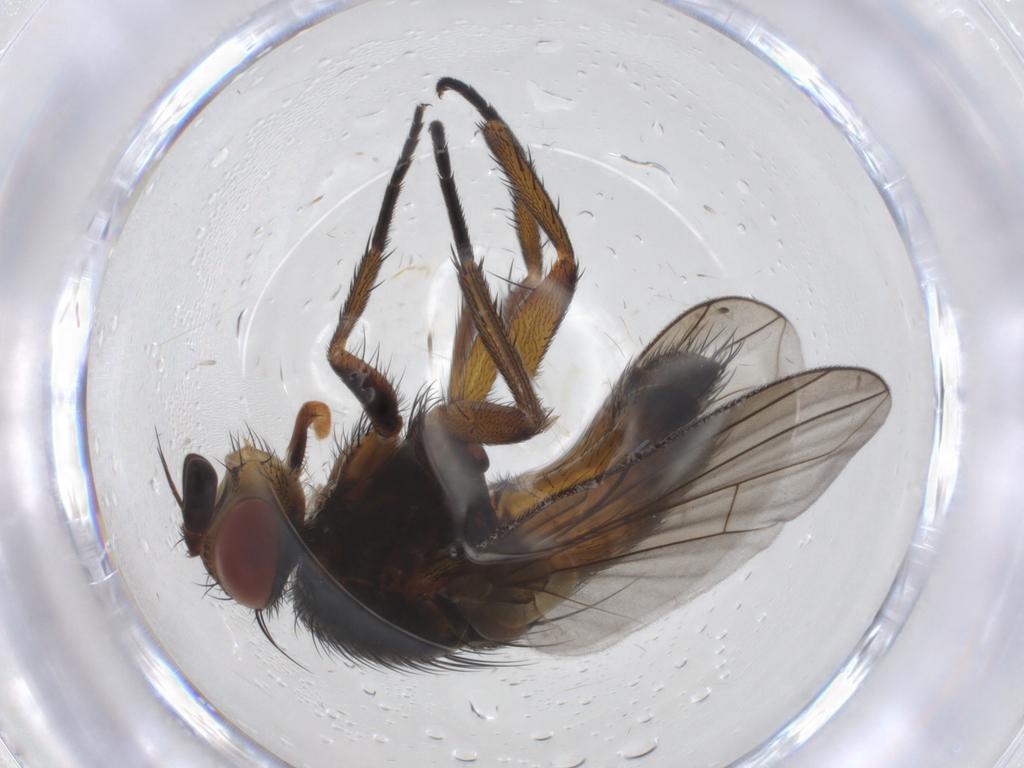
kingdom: Animalia
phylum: Arthropoda
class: Insecta
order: Diptera
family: Tachinidae
